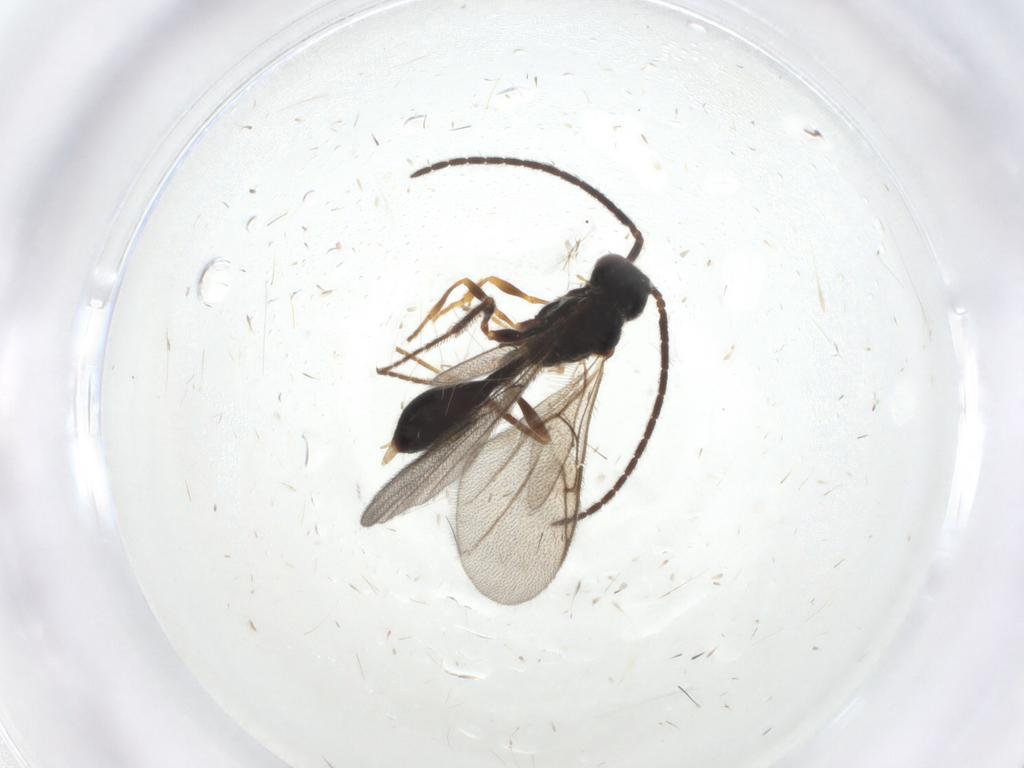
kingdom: Animalia
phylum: Arthropoda
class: Insecta
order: Hymenoptera
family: Diapriidae
